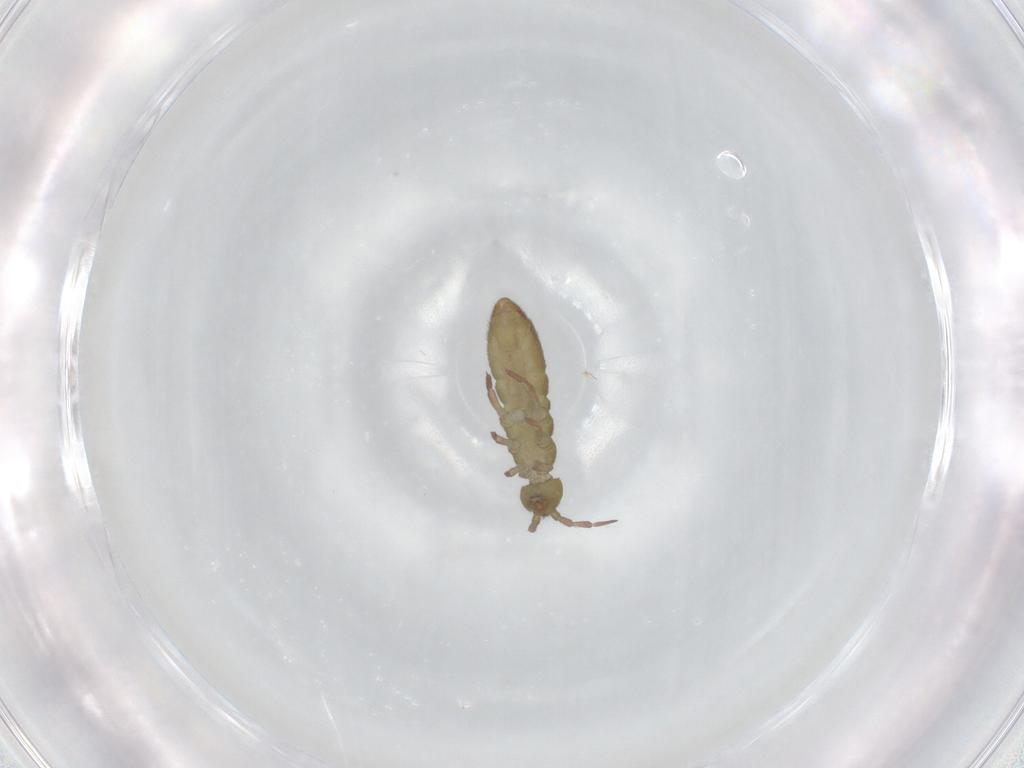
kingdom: Animalia
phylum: Arthropoda
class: Collembola
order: Entomobryomorpha
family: Isotomidae
